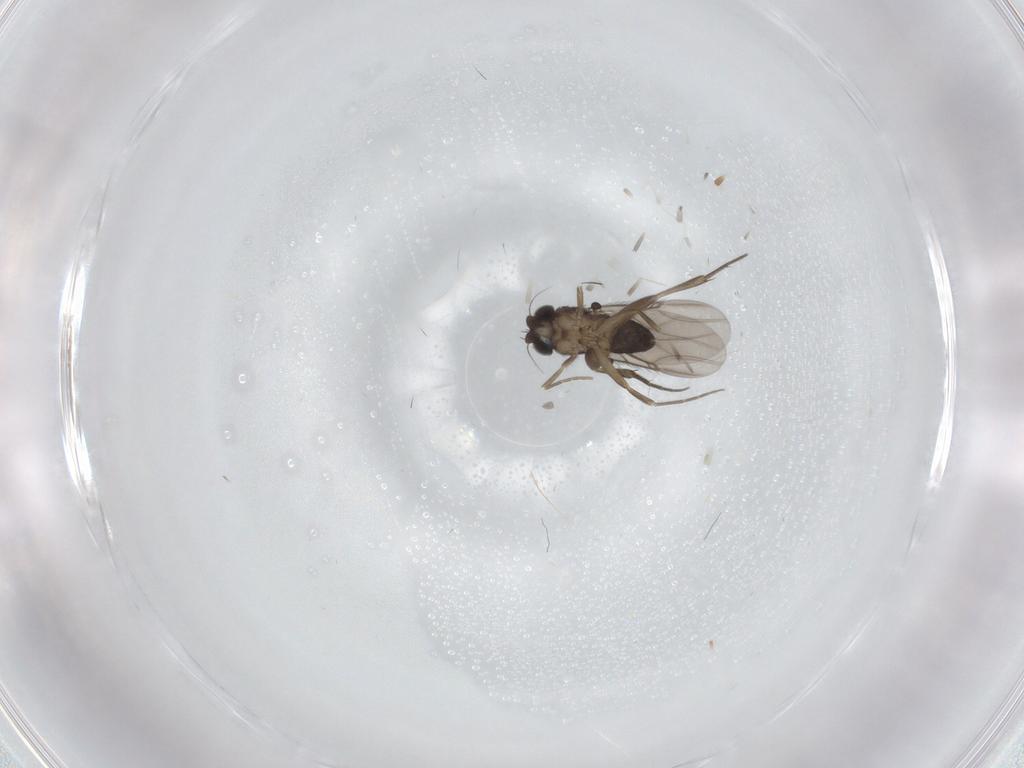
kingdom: Animalia
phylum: Arthropoda
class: Insecta
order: Diptera
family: Phoridae
